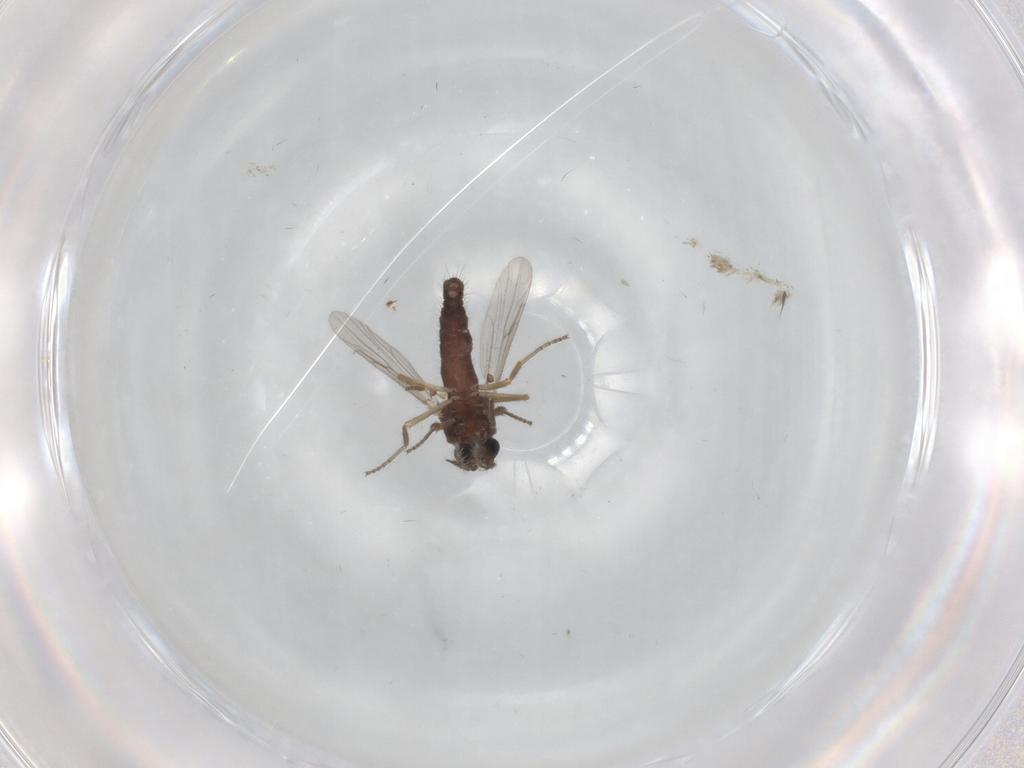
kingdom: Animalia
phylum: Arthropoda
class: Insecta
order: Diptera
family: Ceratopogonidae
